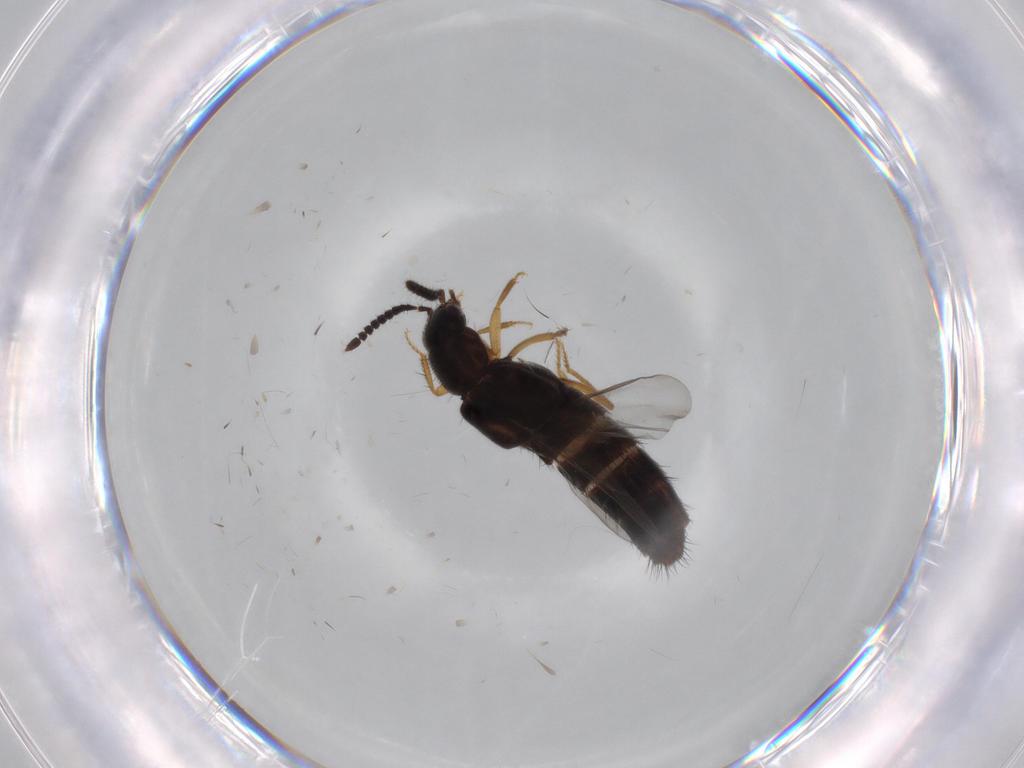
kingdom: Animalia
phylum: Arthropoda
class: Insecta
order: Coleoptera
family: Staphylinidae
